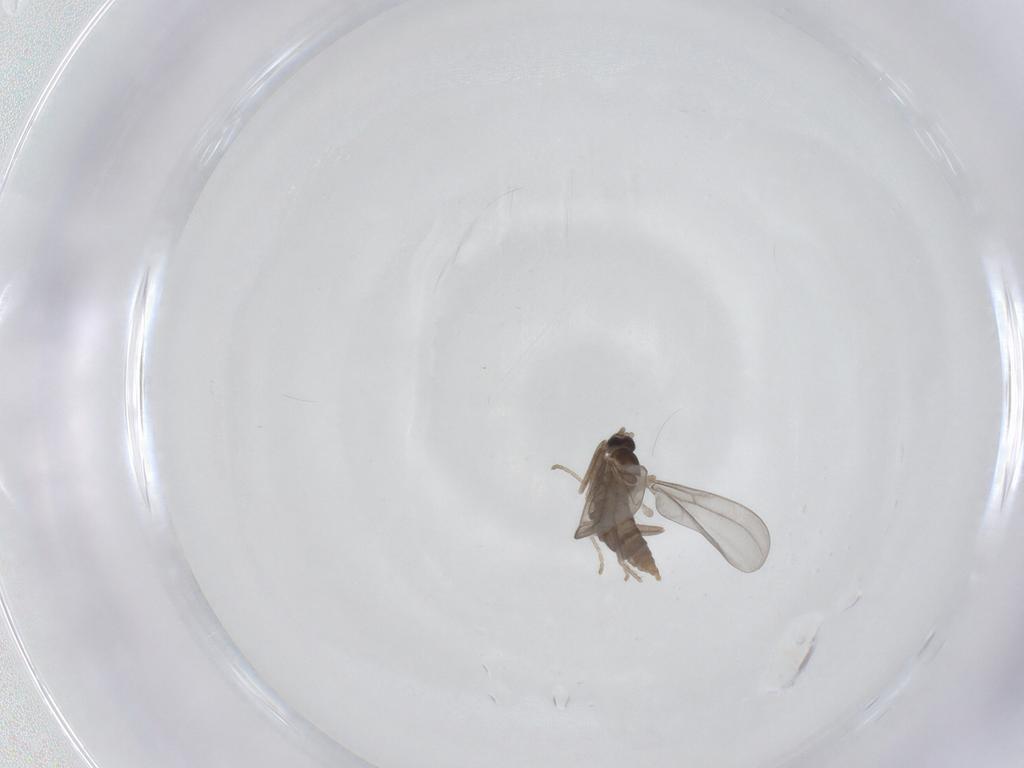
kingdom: Animalia
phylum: Arthropoda
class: Insecta
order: Diptera
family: Cecidomyiidae
